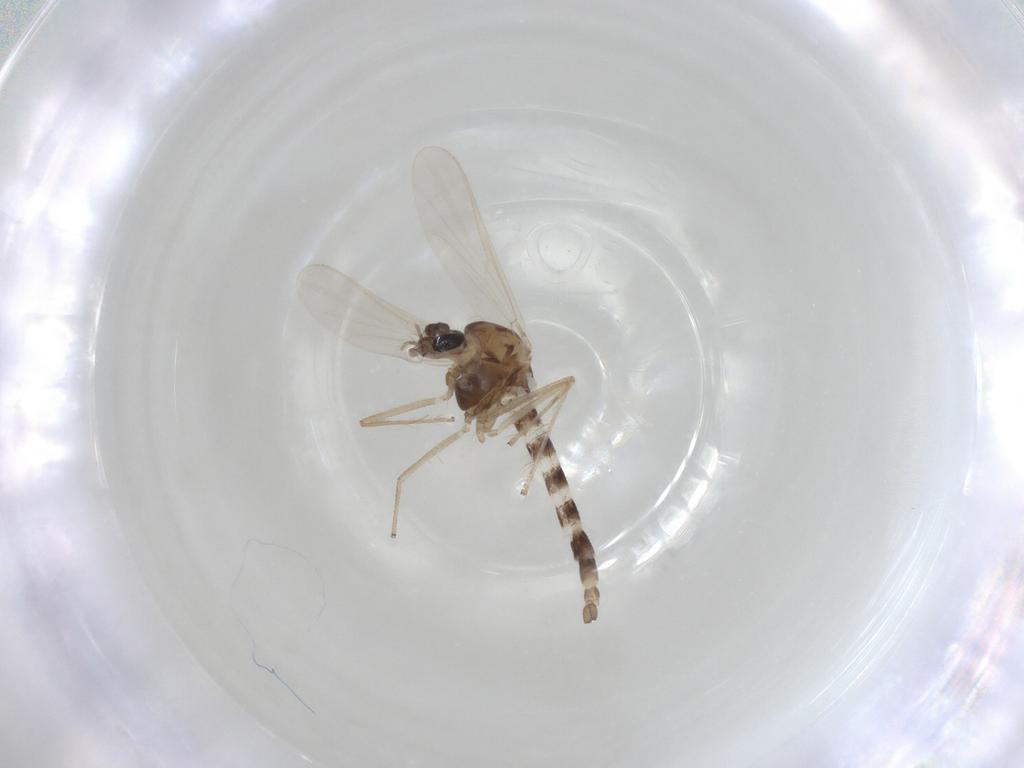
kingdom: Animalia
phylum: Arthropoda
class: Insecta
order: Diptera
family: Chironomidae
